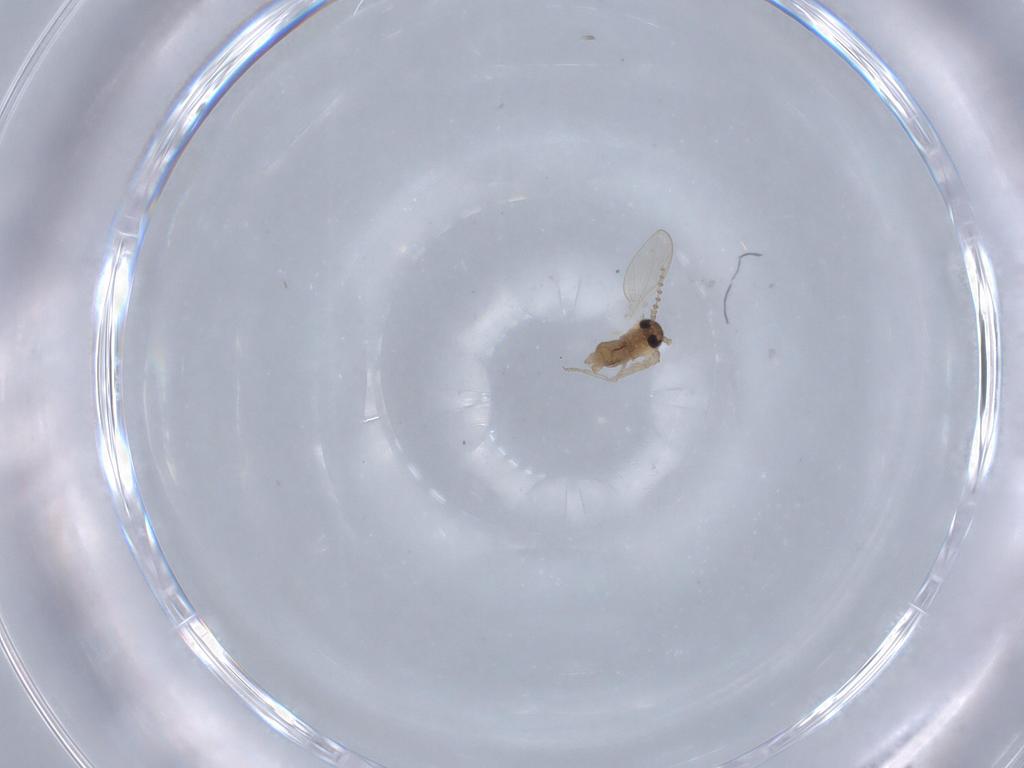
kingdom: Animalia
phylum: Arthropoda
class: Insecta
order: Diptera
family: Psychodidae
